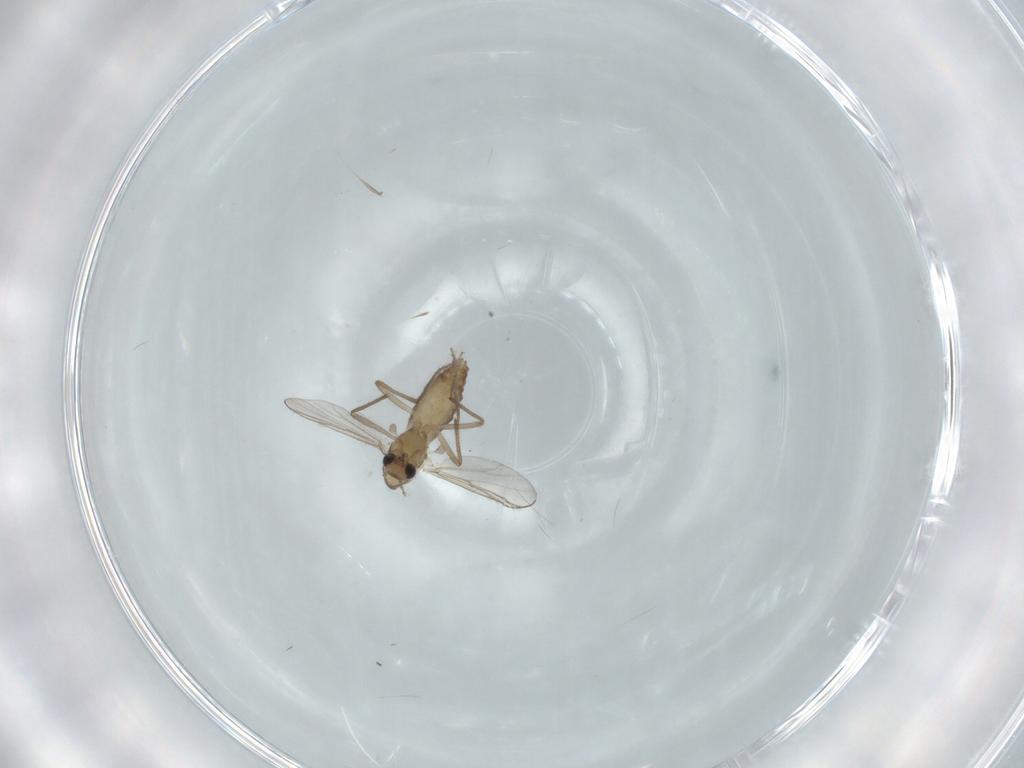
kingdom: Animalia
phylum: Arthropoda
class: Insecta
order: Diptera
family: Chironomidae
